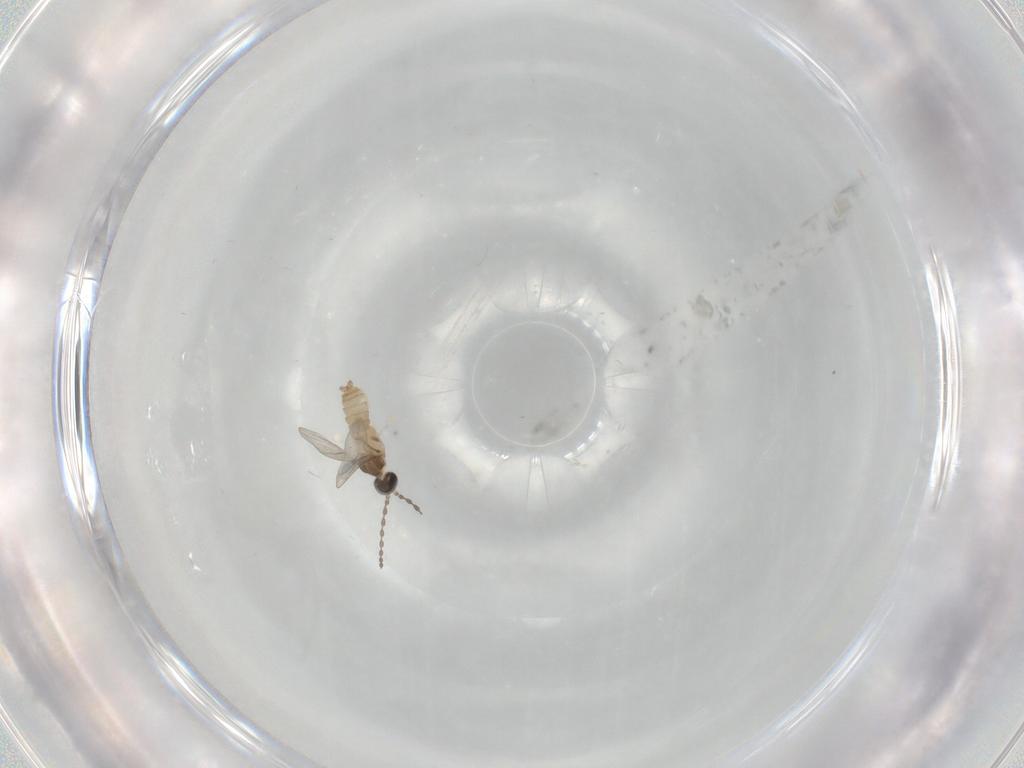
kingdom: Animalia
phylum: Arthropoda
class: Insecta
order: Diptera
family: Cecidomyiidae
